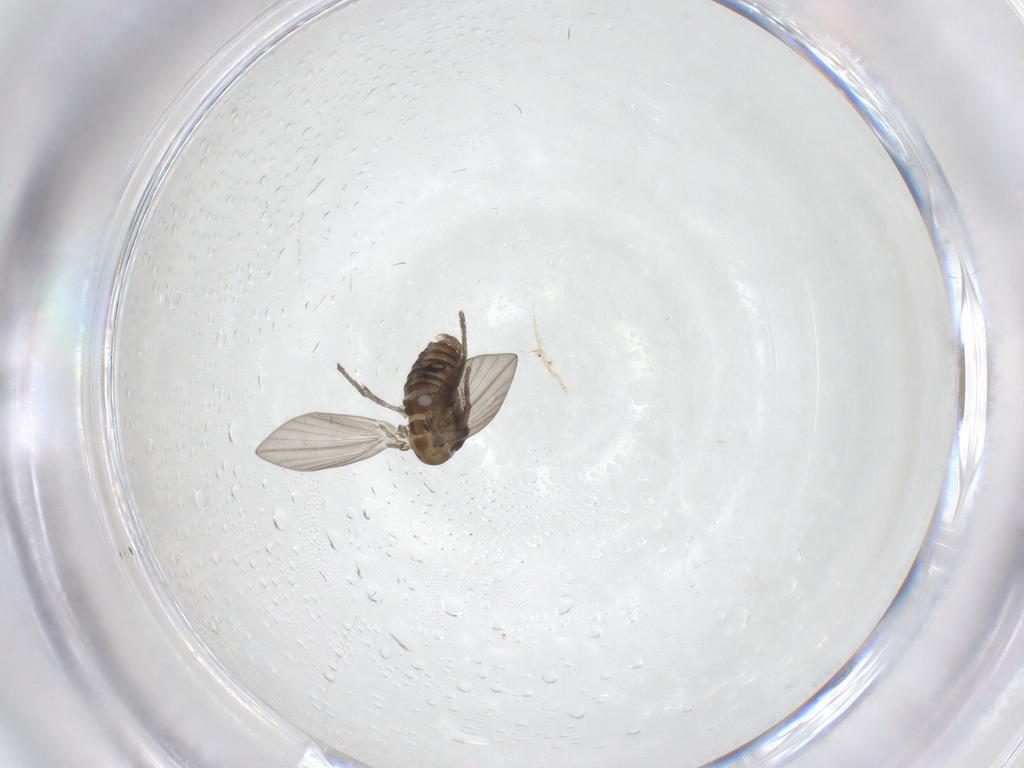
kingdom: Animalia
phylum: Arthropoda
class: Insecta
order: Diptera
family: Psychodidae
